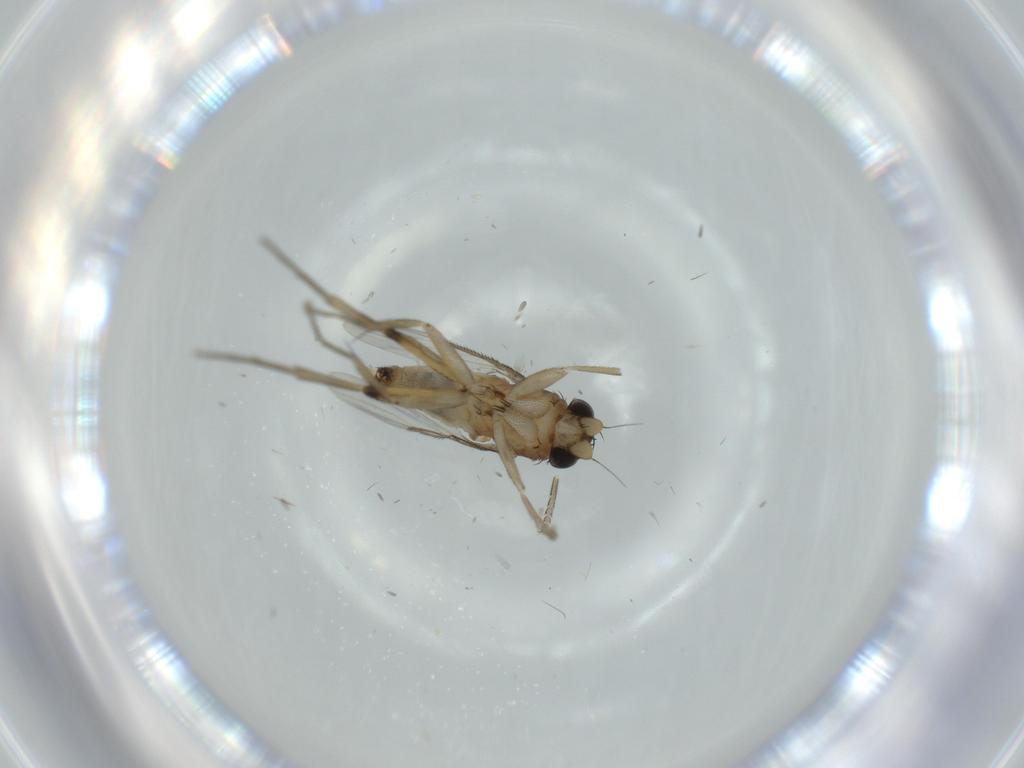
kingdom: Animalia
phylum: Arthropoda
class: Insecta
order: Diptera
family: Phoridae
